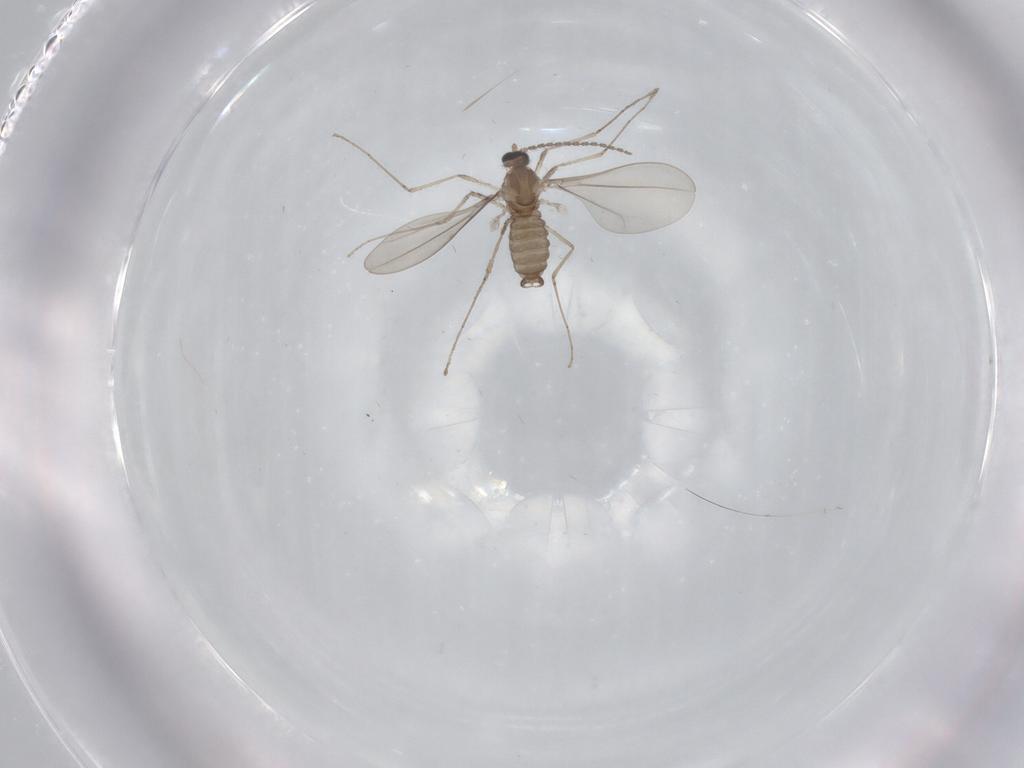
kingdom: Animalia
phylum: Arthropoda
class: Insecta
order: Diptera
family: Cecidomyiidae
